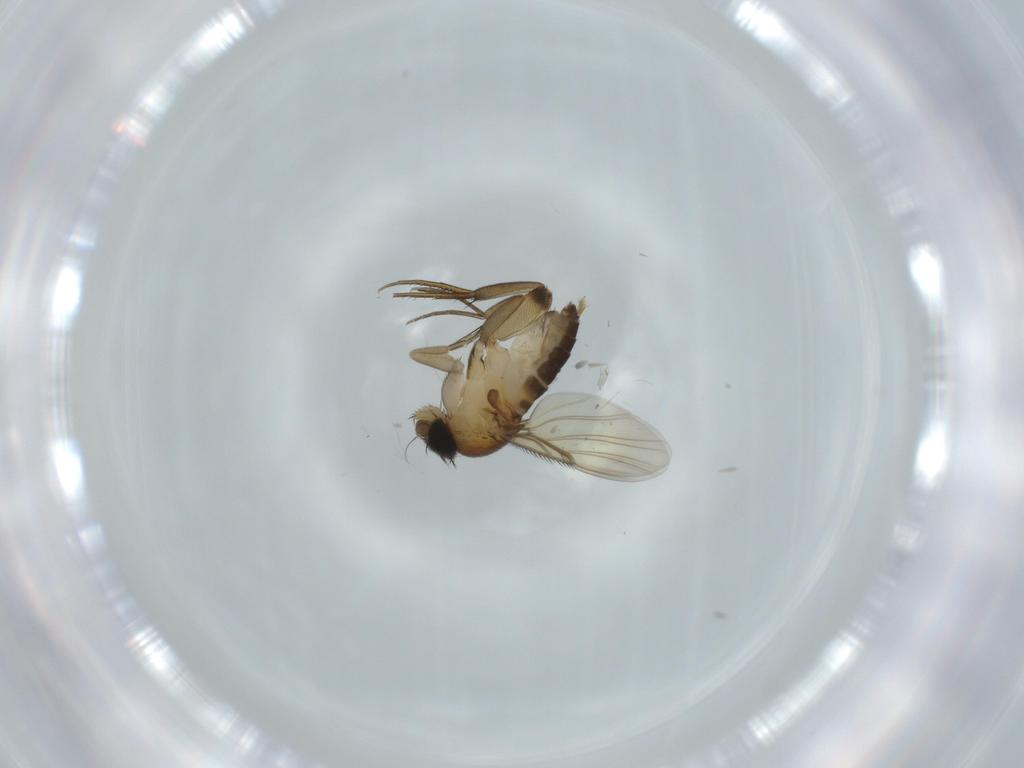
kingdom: Animalia
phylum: Arthropoda
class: Insecta
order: Diptera
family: Phoridae
